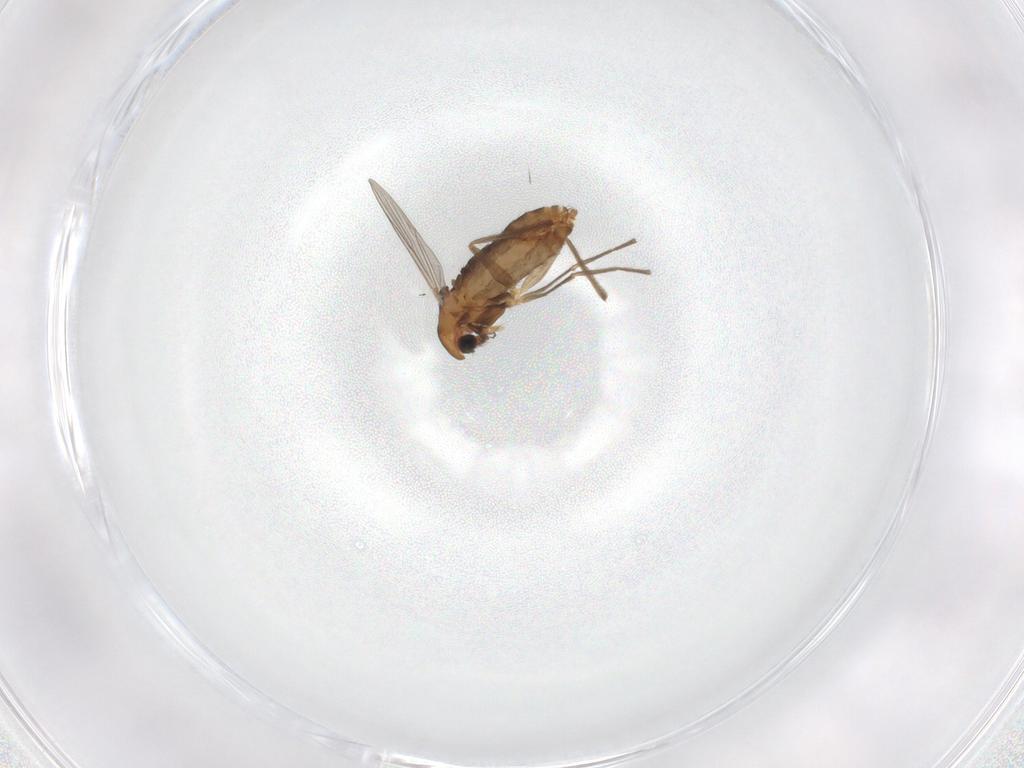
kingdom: Animalia
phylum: Arthropoda
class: Insecta
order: Diptera
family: Chironomidae
